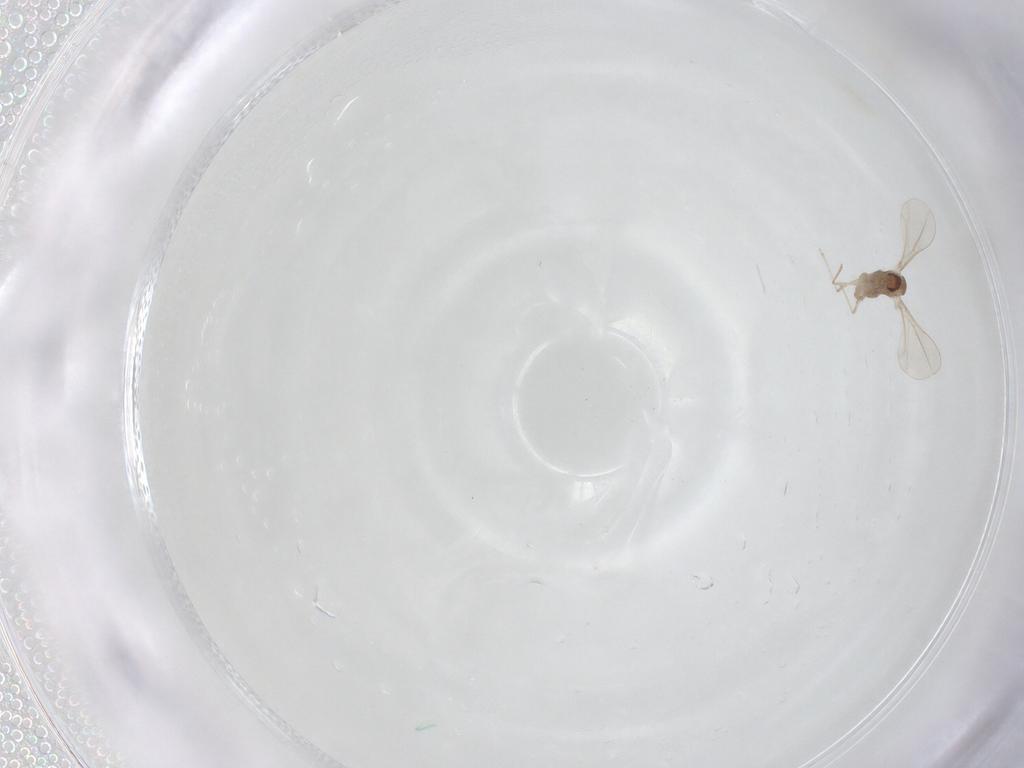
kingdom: Animalia
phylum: Arthropoda
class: Insecta
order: Diptera
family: Cecidomyiidae
